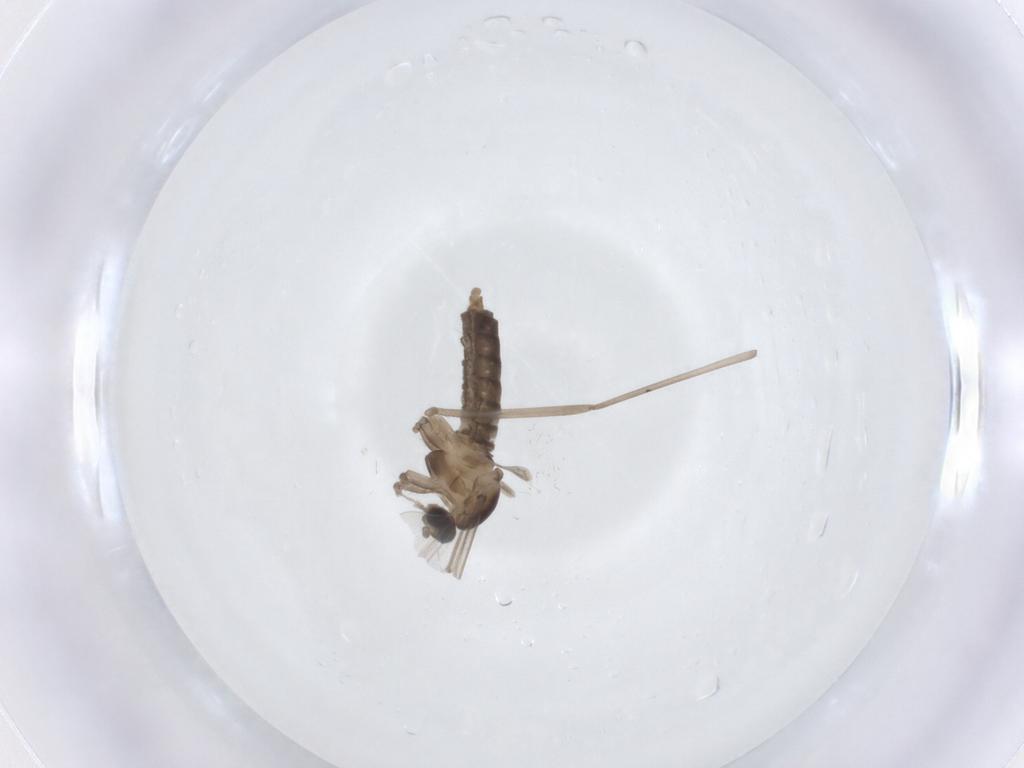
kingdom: Animalia
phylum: Arthropoda
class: Insecta
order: Diptera
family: Cecidomyiidae
